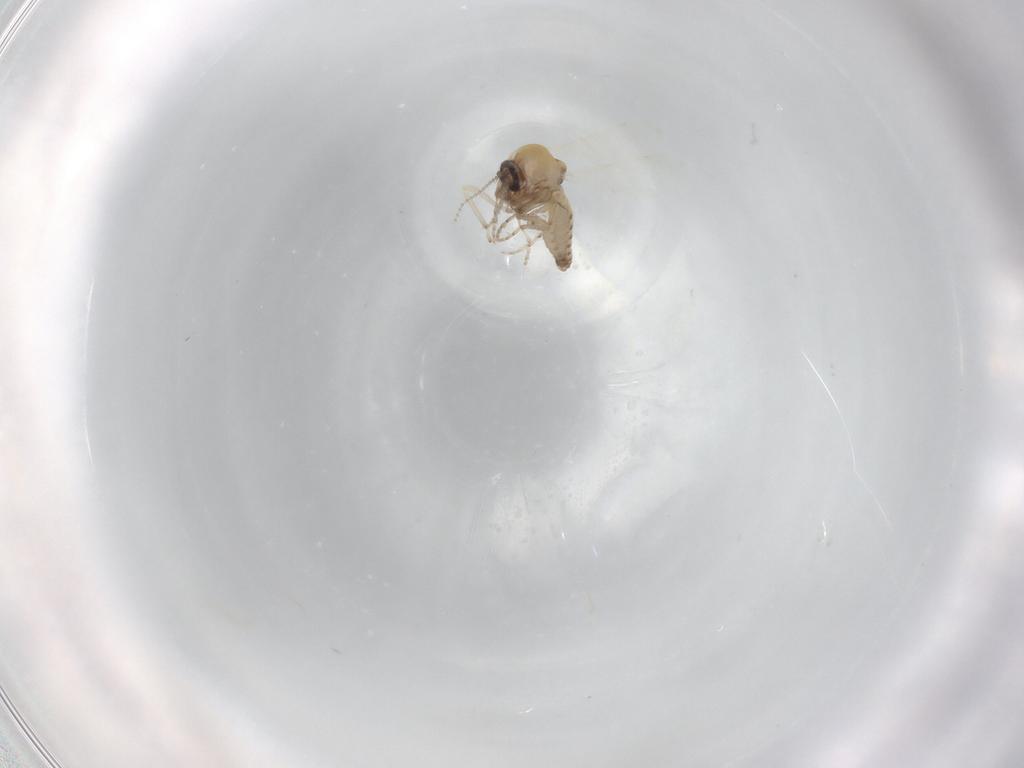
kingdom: Animalia
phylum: Arthropoda
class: Insecta
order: Diptera
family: Ceratopogonidae
